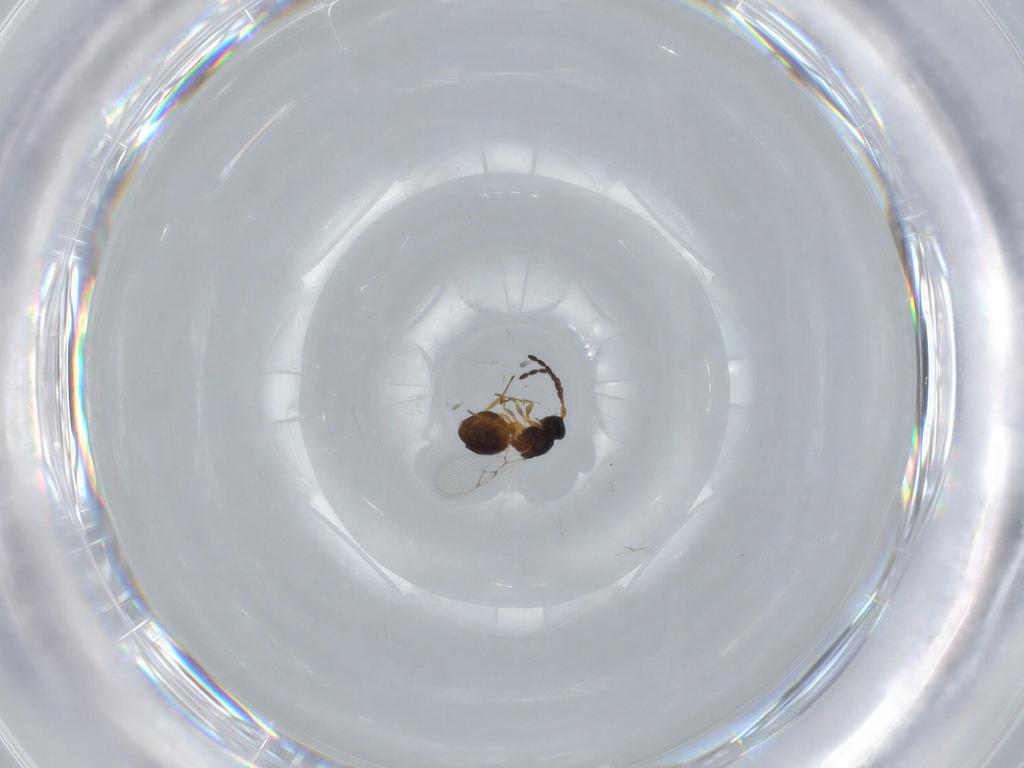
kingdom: Animalia
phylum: Arthropoda
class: Insecta
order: Hymenoptera
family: Figitidae
